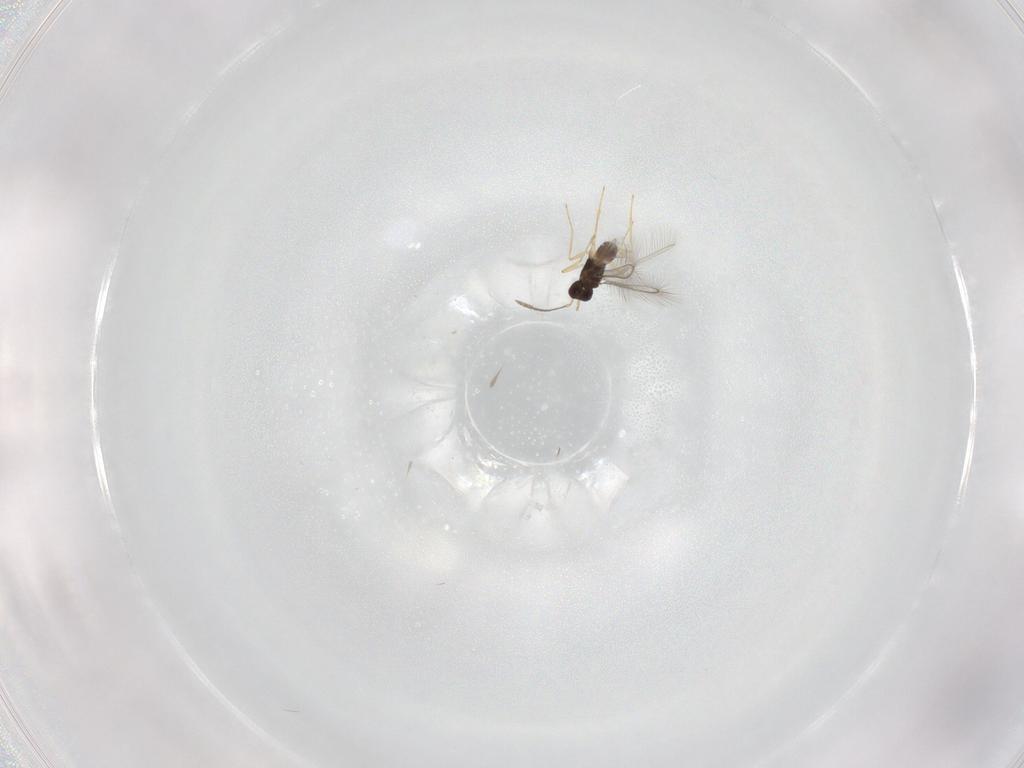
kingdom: Animalia
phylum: Arthropoda
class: Insecta
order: Hymenoptera
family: Mymaridae
